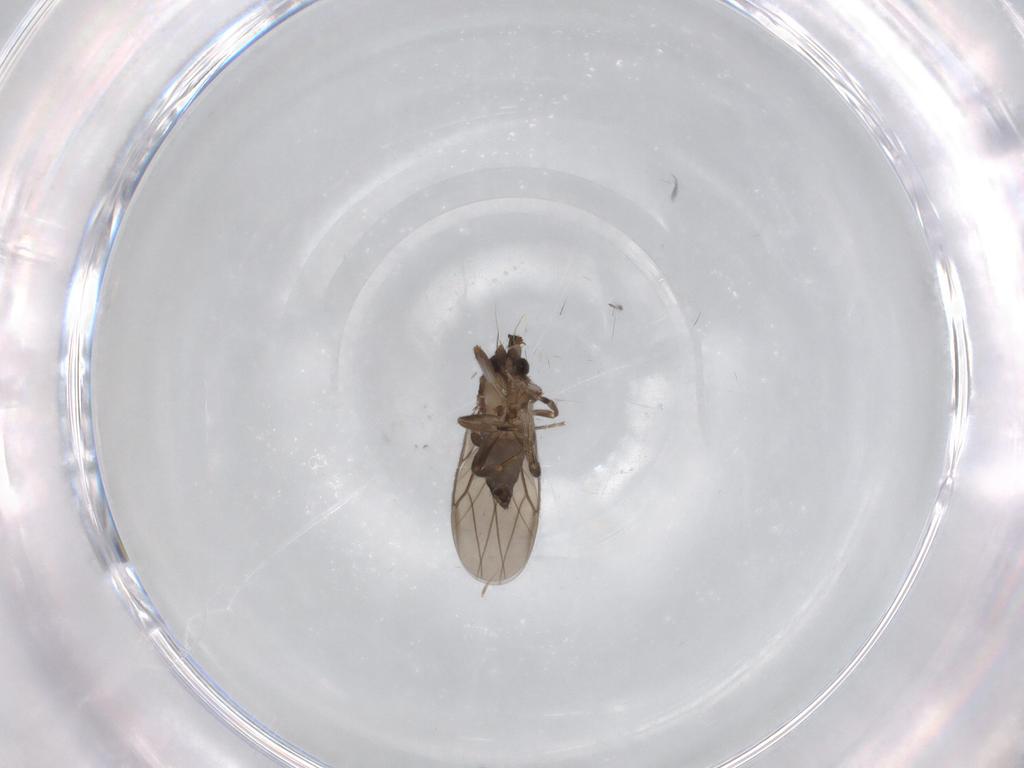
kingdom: Animalia
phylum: Arthropoda
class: Insecta
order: Diptera
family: Phoridae
